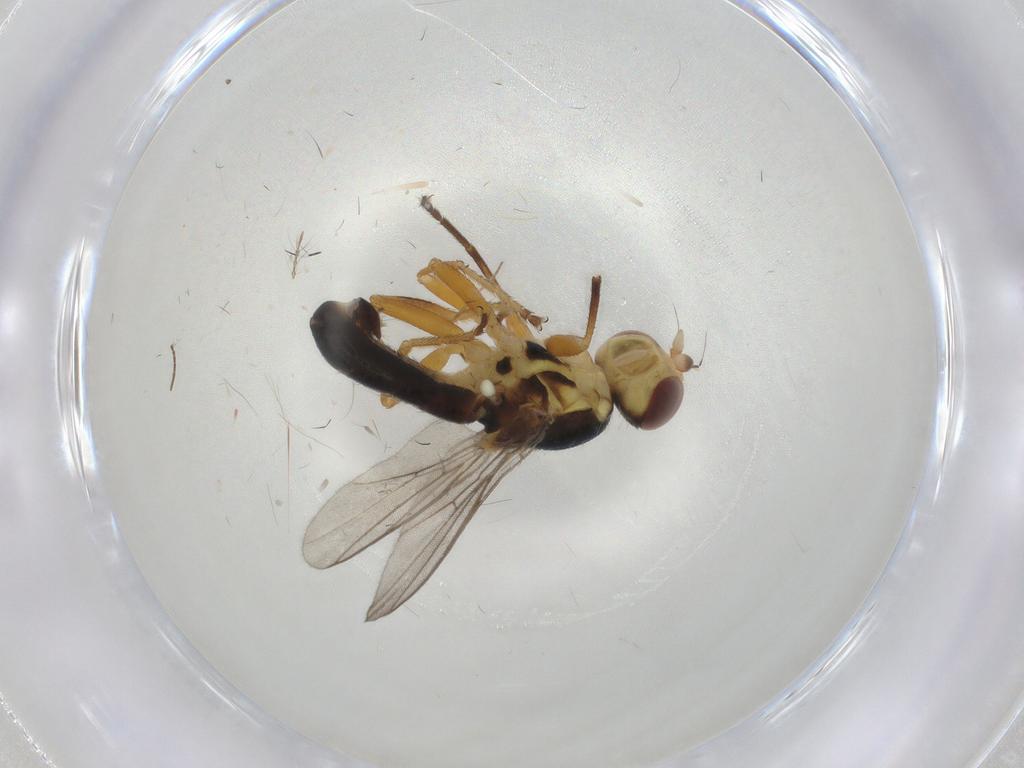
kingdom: Animalia
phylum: Arthropoda
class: Insecta
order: Diptera
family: Chloropidae
